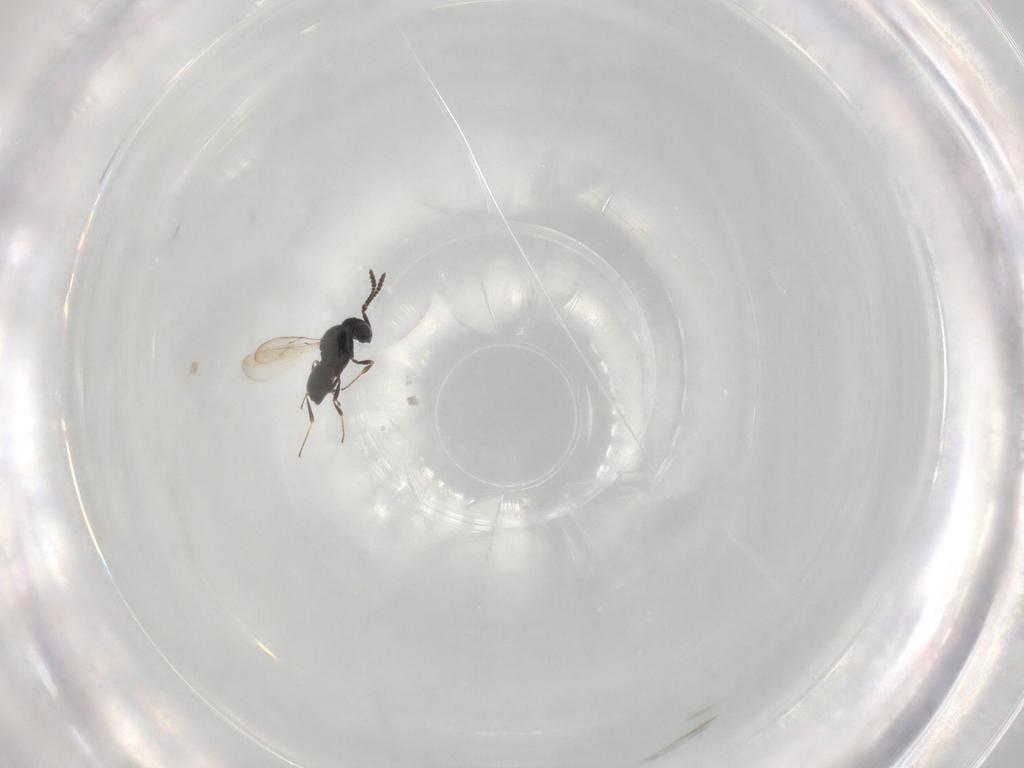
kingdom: Animalia
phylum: Arthropoda
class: Insecta
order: Hymenoptera
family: Scelionidae
